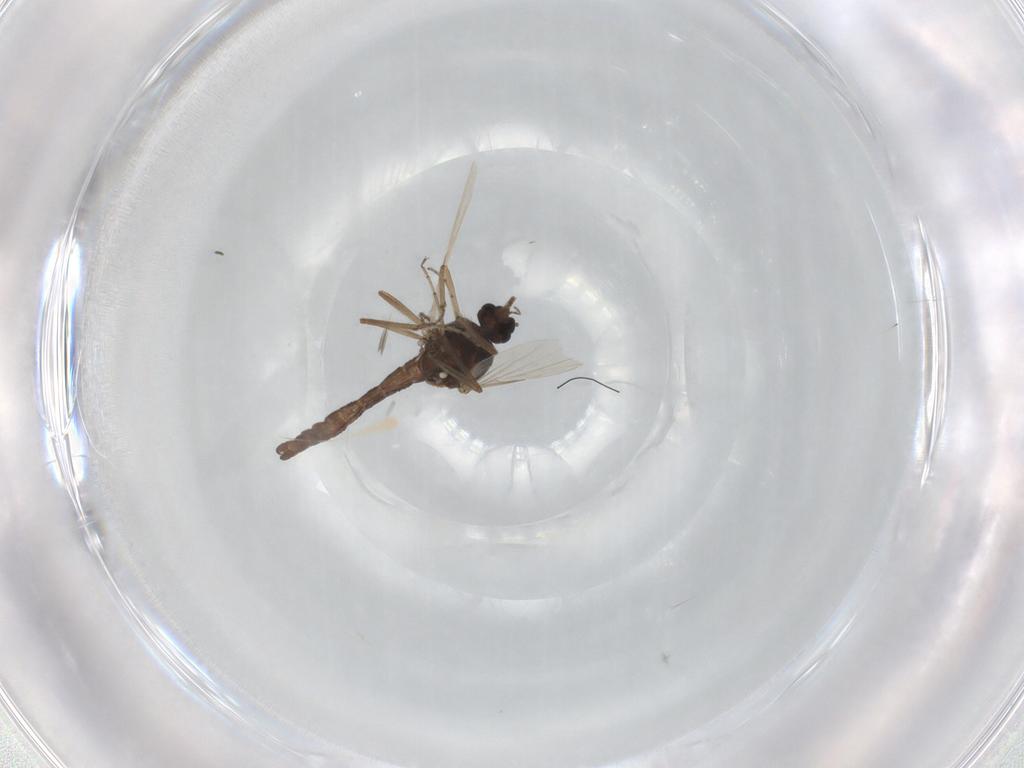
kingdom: Animalia
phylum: Arthropoda
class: Insecta
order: Diptera
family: Ceratopogonidae
